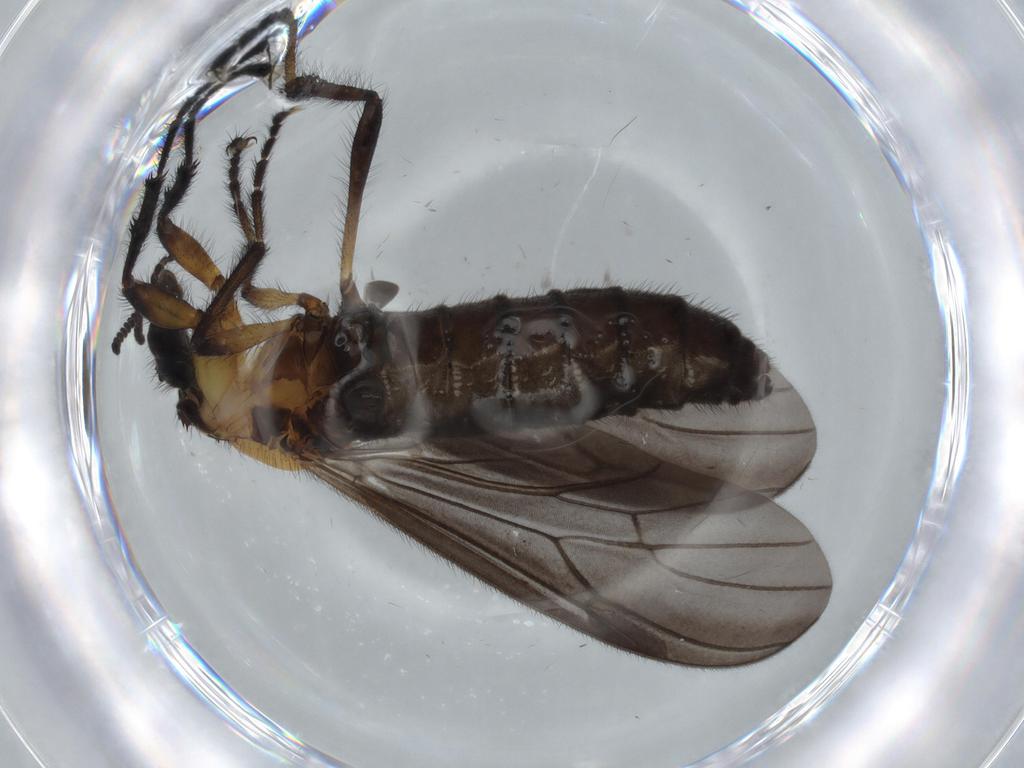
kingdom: Animalia
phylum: Arthropoda
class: Insecta
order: Diptera
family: Bibionidae
